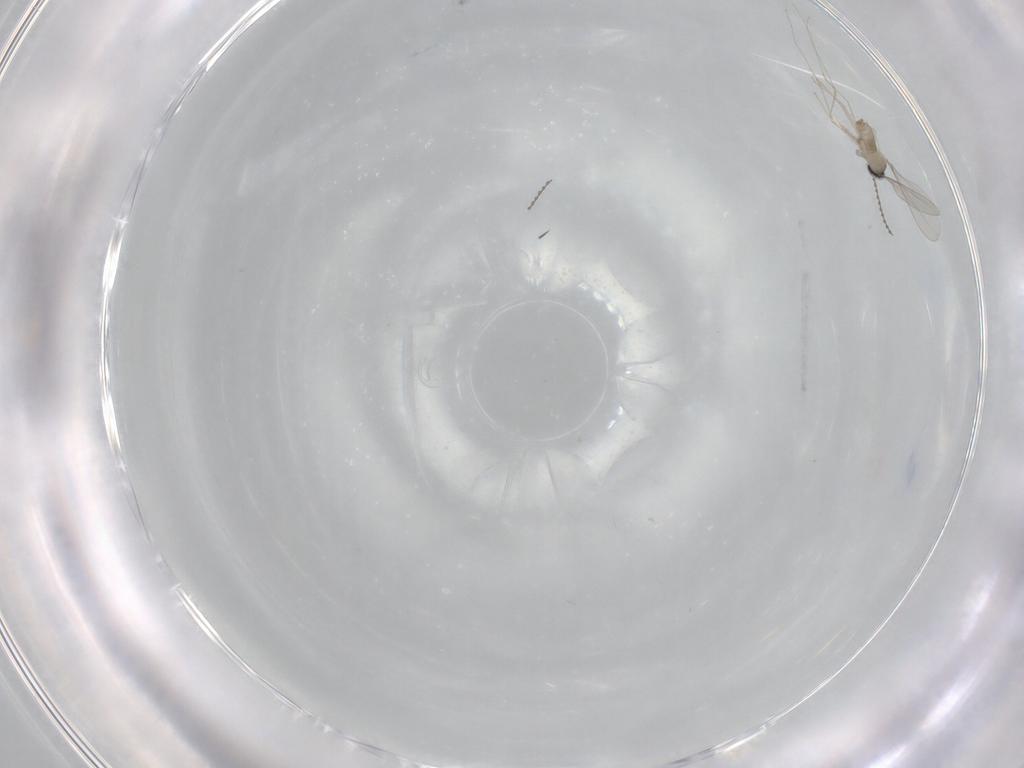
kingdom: Animalia
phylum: Arthropoda
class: Insecta
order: Diptera
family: Cecidomyiidae
